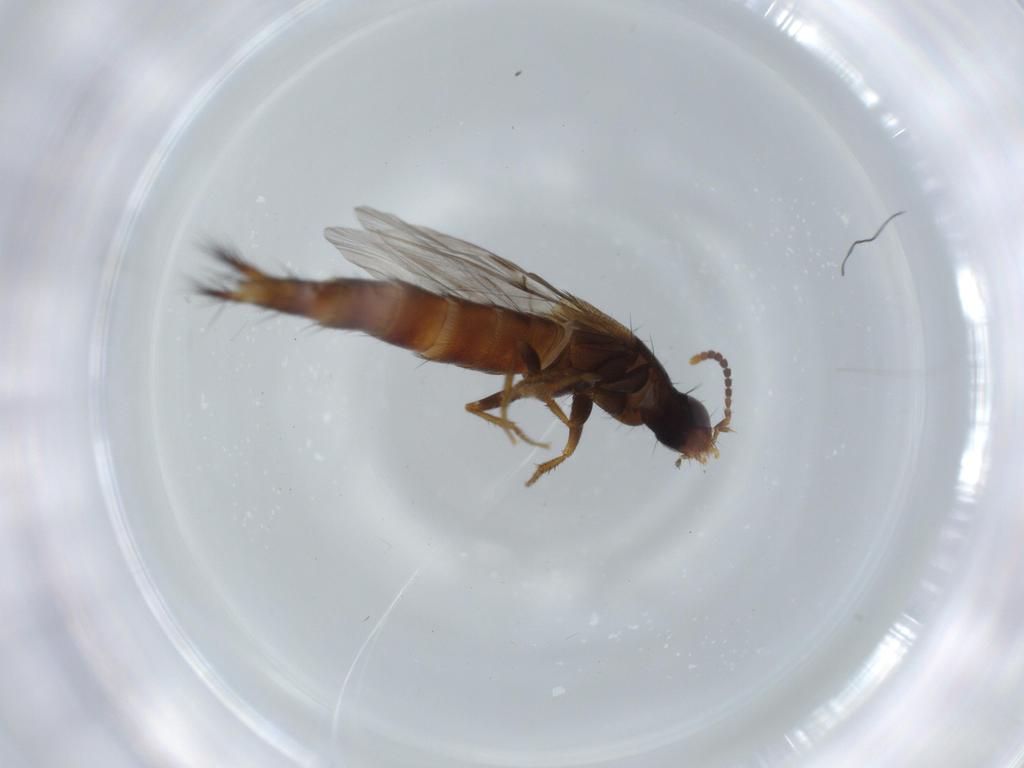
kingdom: Animalia
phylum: Arthropoda
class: Insecta
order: Coleoptera
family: Staphylinidae
